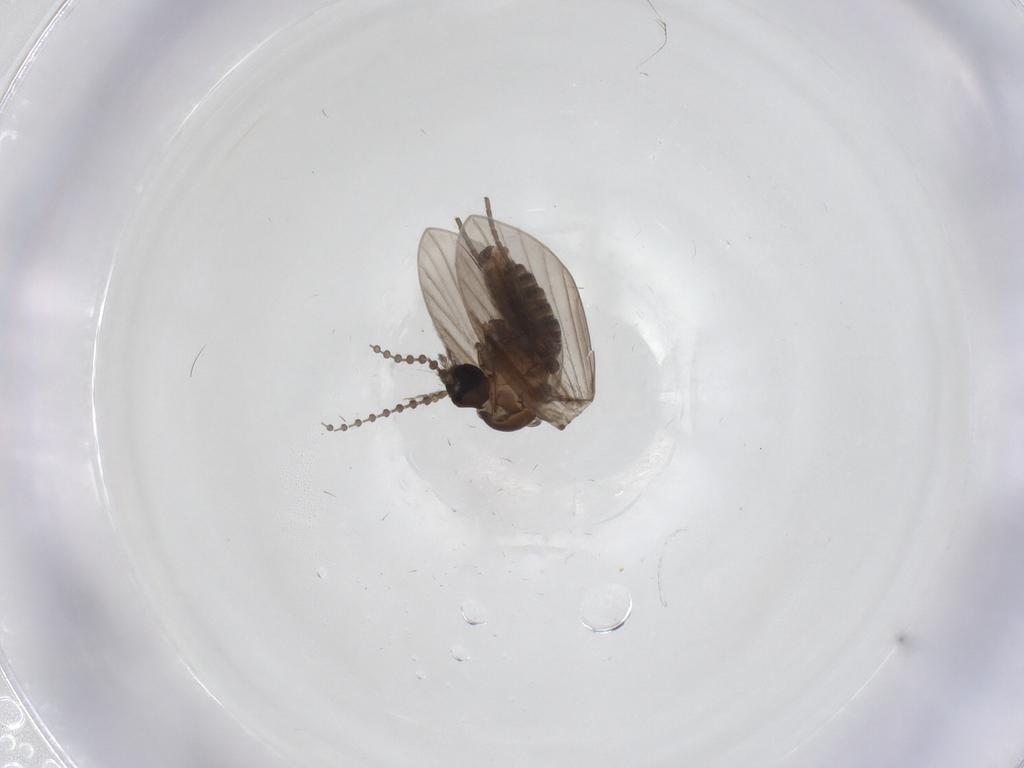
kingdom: Animalia
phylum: Arthropoda
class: Insecta
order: Diptera
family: Psychodidae
